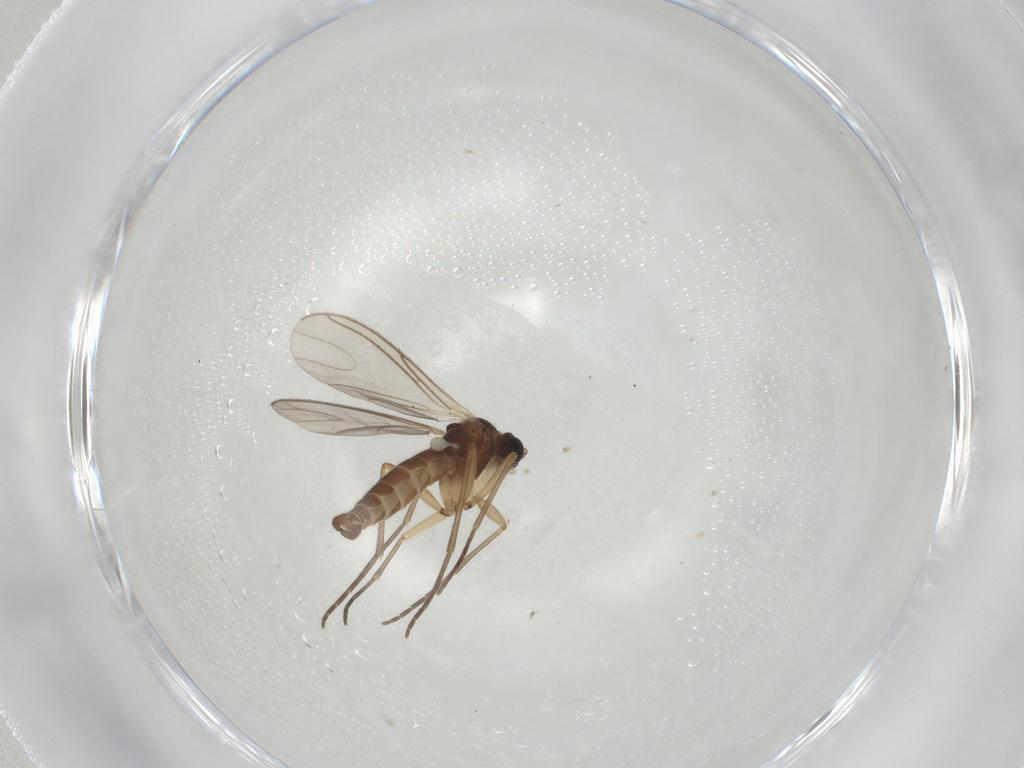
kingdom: Animalia
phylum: Arthropoda
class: Insecta
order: Diptera
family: Sciaridae
